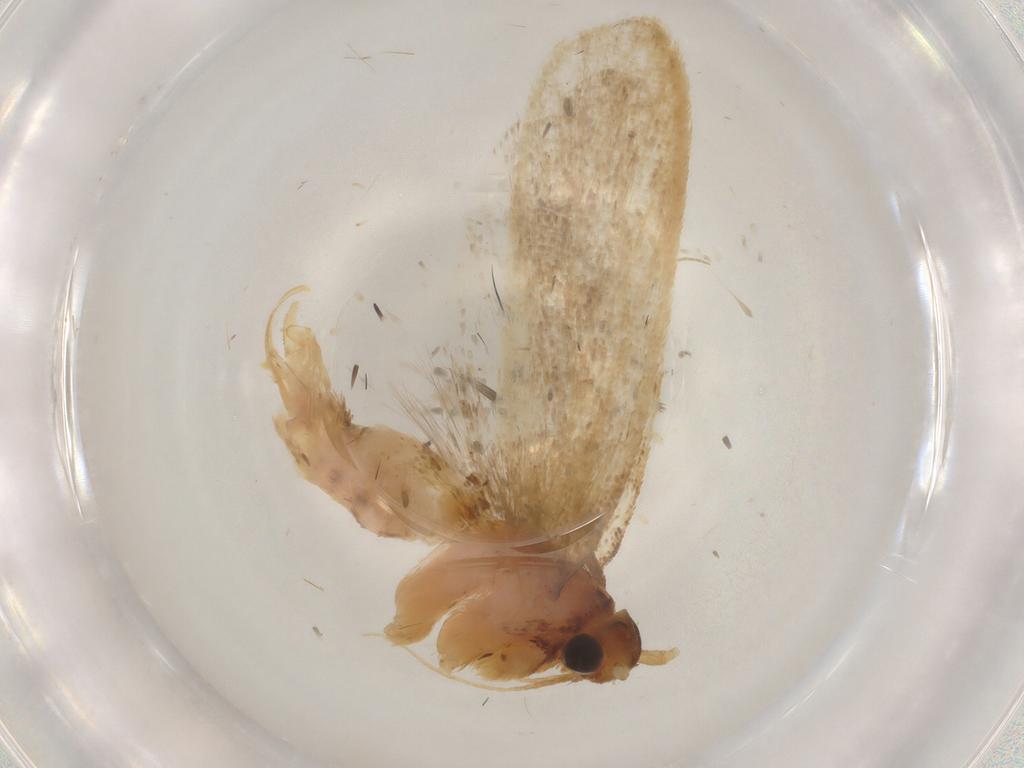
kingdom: Animalia
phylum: Arthropoda
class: Insecta
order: Lepidoptera
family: Lecithoceridae
